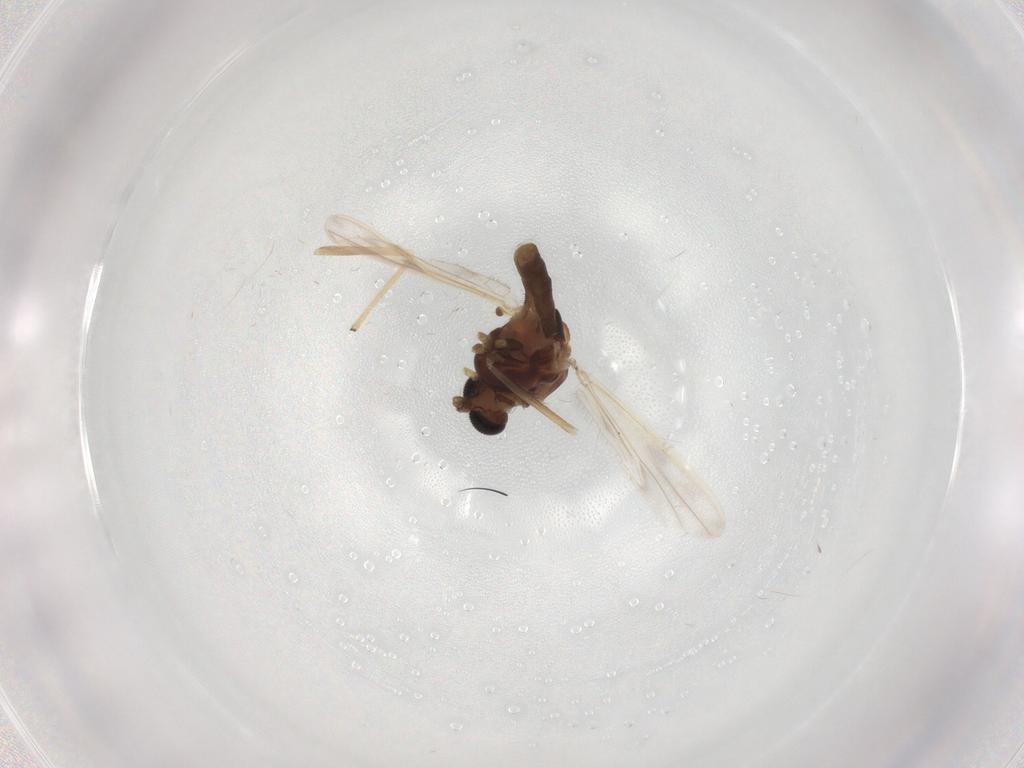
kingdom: Animalia
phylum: Arthropoda
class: Insecta
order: Diptera
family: Chironomidae
